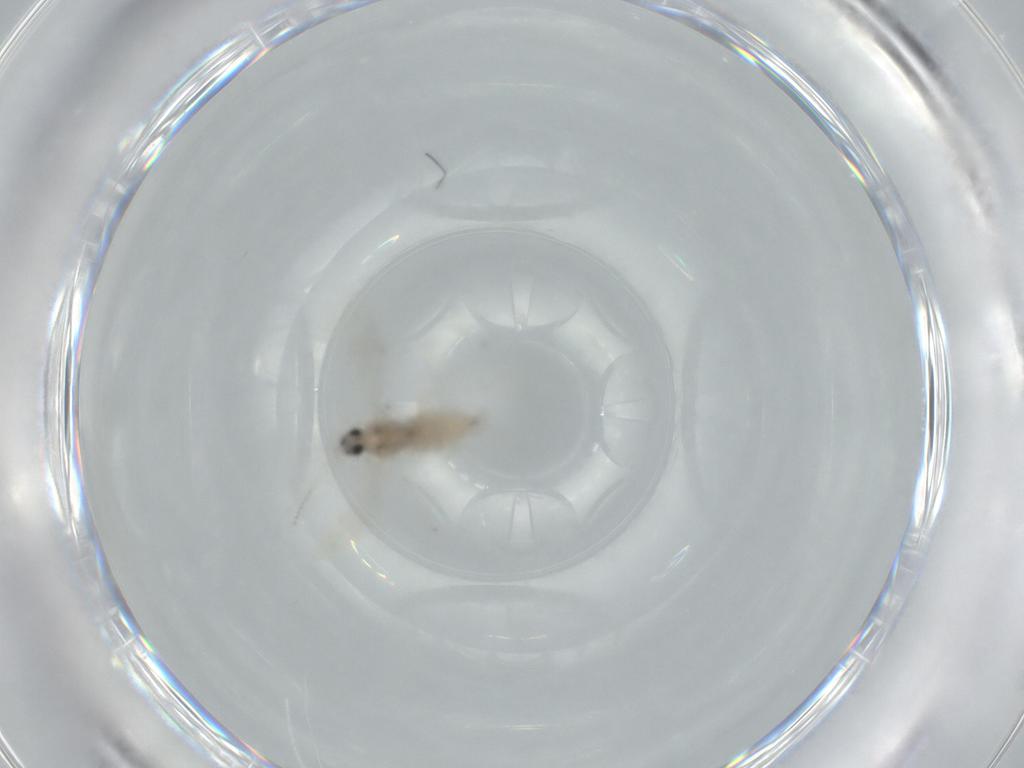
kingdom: Animalia
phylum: Arthropoda
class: Insecta
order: Diptera
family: Cecidomyiidae
